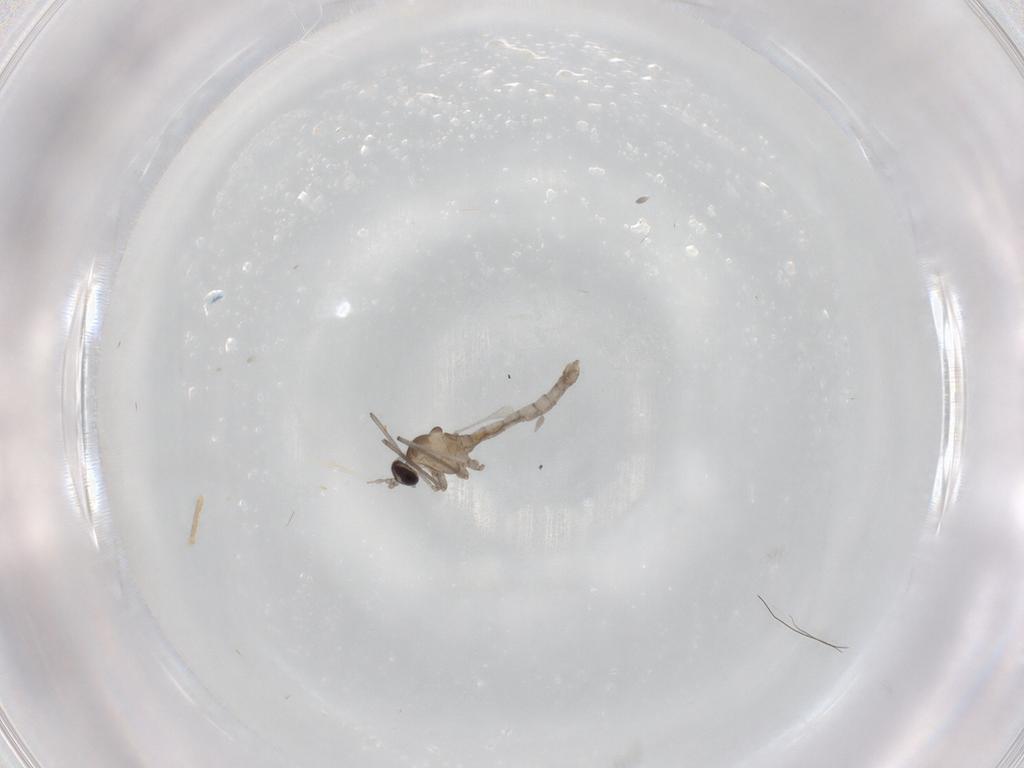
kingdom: Animalia
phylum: Arthropoda
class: Insecta
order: Diptera
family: Cecidomyiidae
